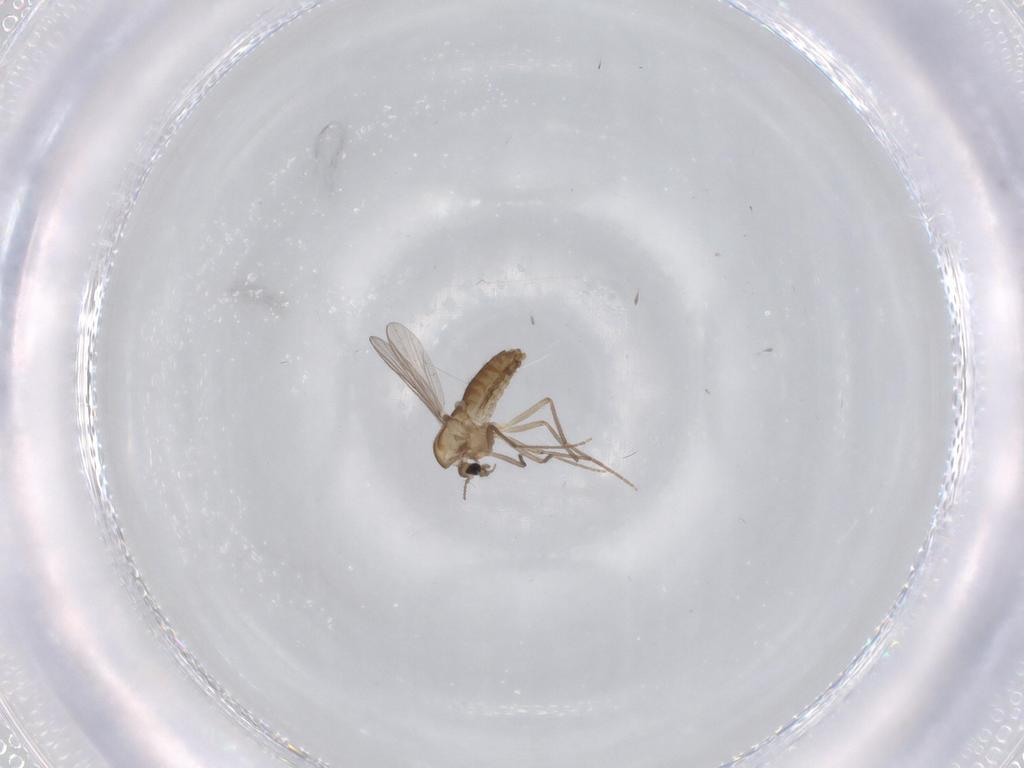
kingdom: Animalia
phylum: Arthropoda
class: Insecta
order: Diptera
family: Chironomidae
